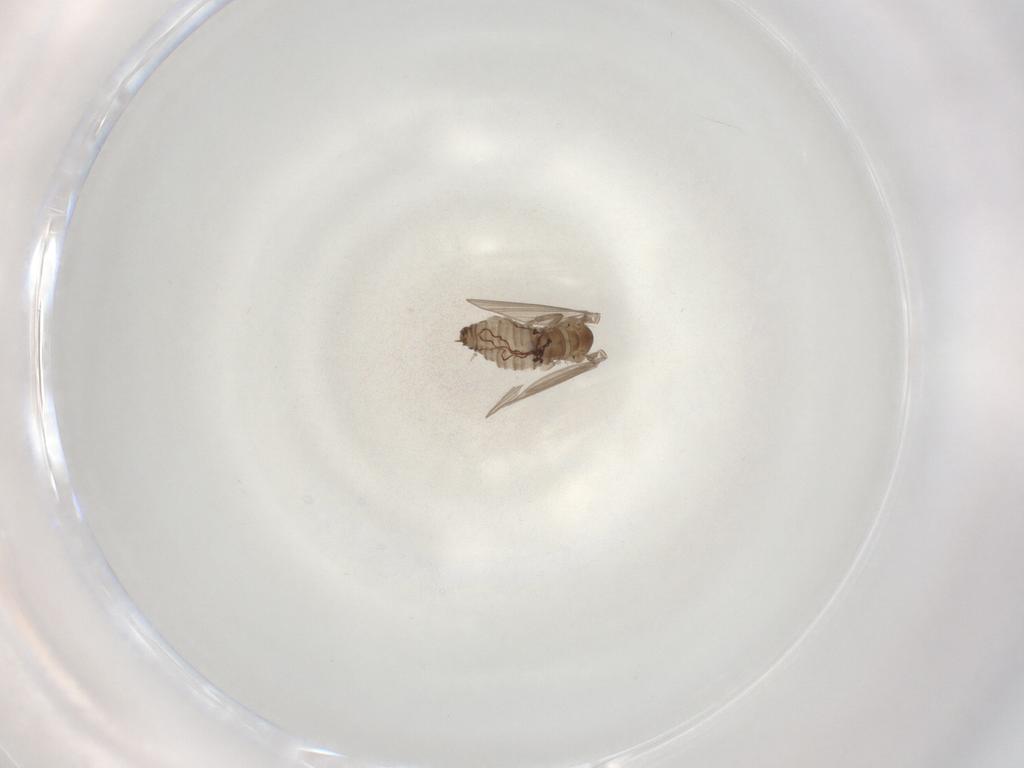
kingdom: Animalia
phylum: Arthropoda
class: Insecta
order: Diptera
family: Psychodidae
